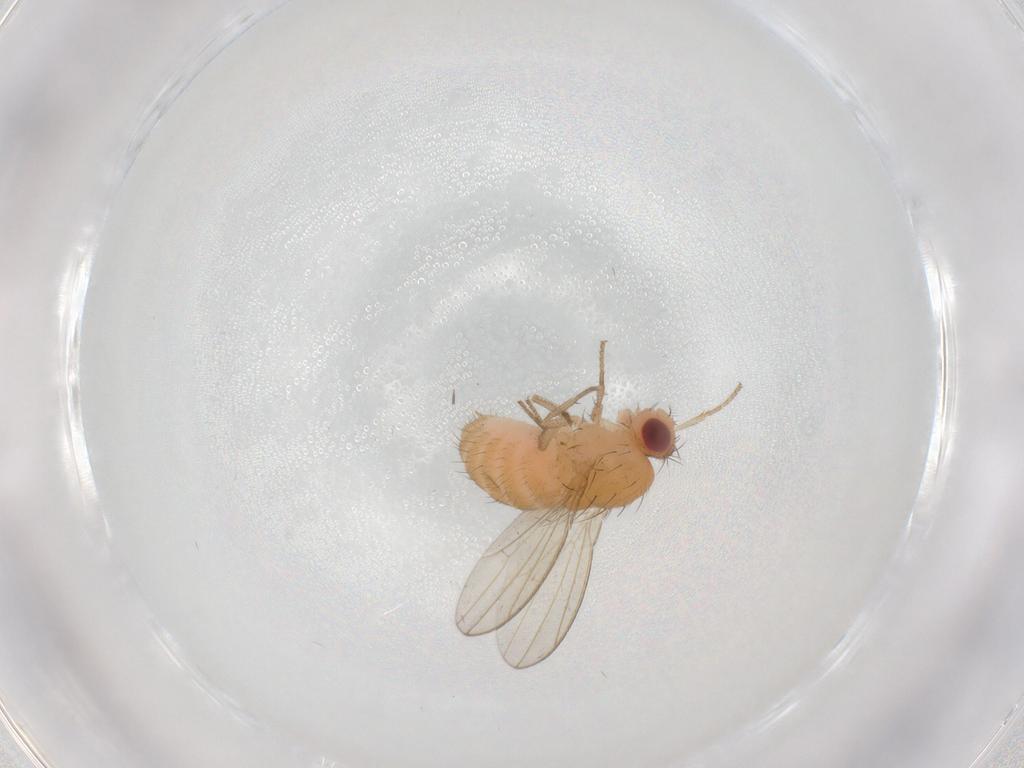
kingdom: Animalia
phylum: Arthropoda
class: Insecta
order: Diptera
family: Drosophilidae
